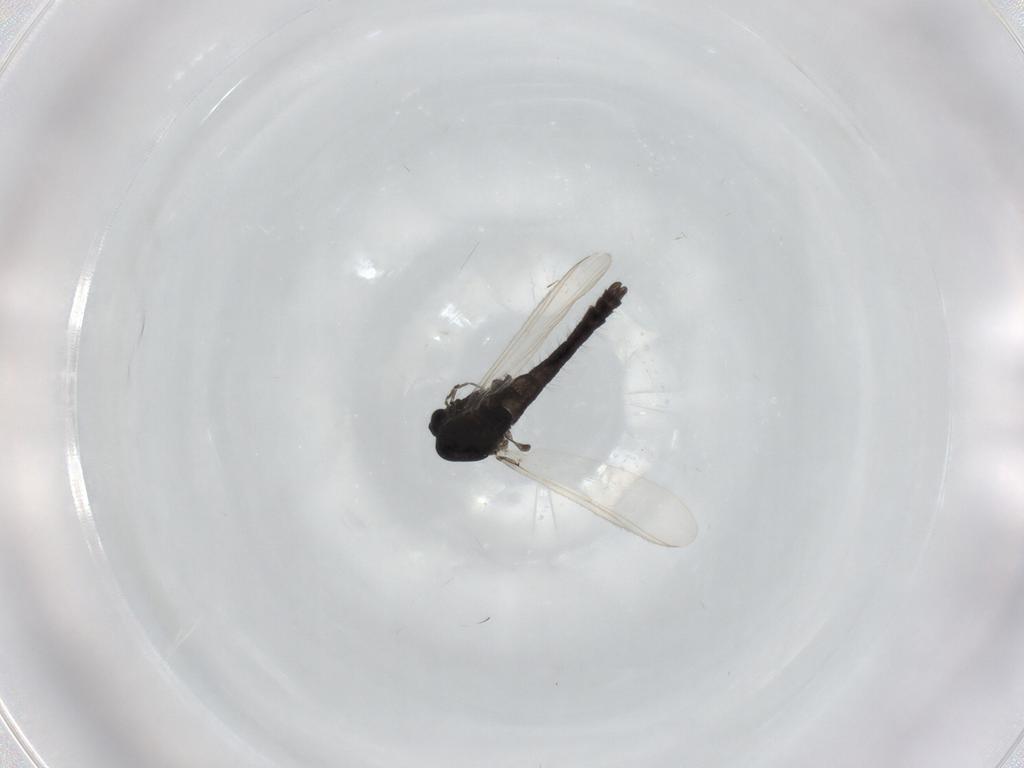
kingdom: Animalia
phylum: Arthropoda
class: Insecta
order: Diptera
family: Chironomidae
